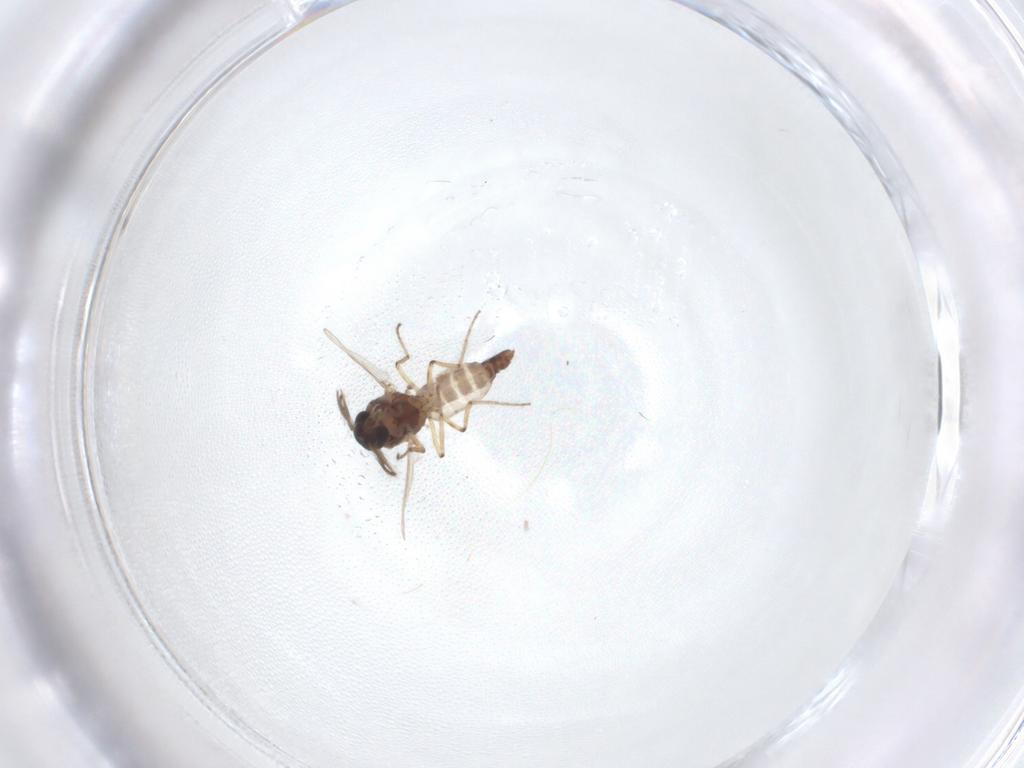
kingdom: Animalia
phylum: Arthropoda
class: Insecta
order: Diptera
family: Ceratopogonidae
